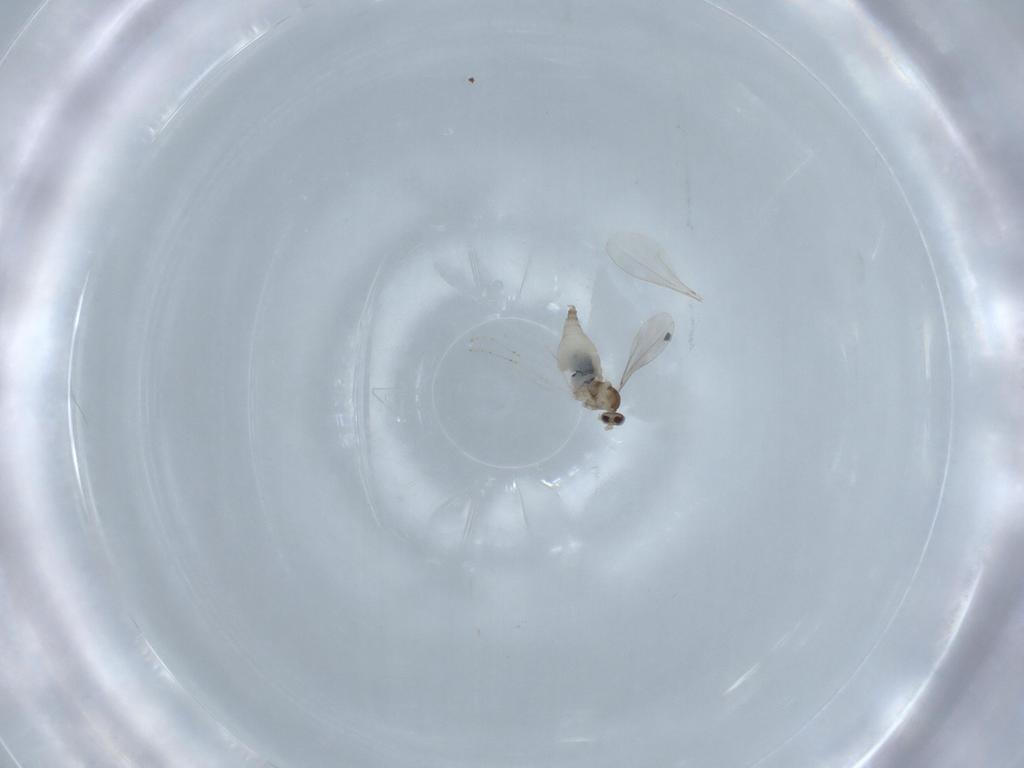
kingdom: Animalia
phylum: Arthropoda
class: Insecta
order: Diptera
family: Cecidomyiidae
